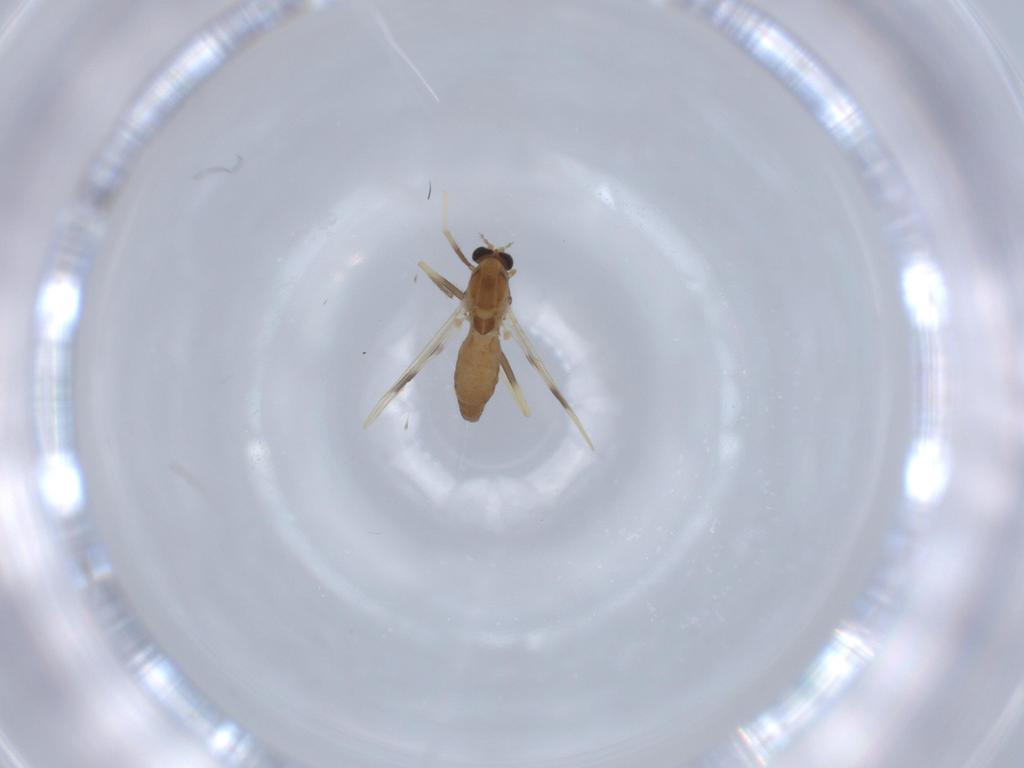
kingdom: Animalia
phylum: Arthropoda
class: Insecta
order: Diptera
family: Chironomidae
